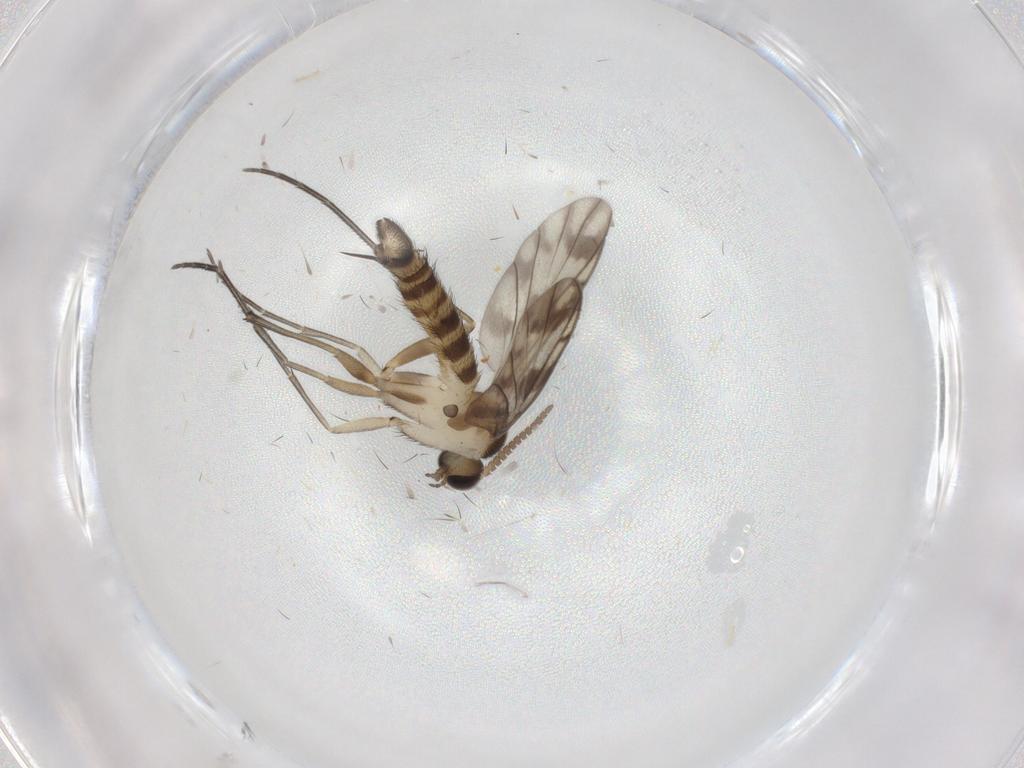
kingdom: Animalia
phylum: Arthropoda
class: Insecta
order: Diptera
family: Keroplatidae
